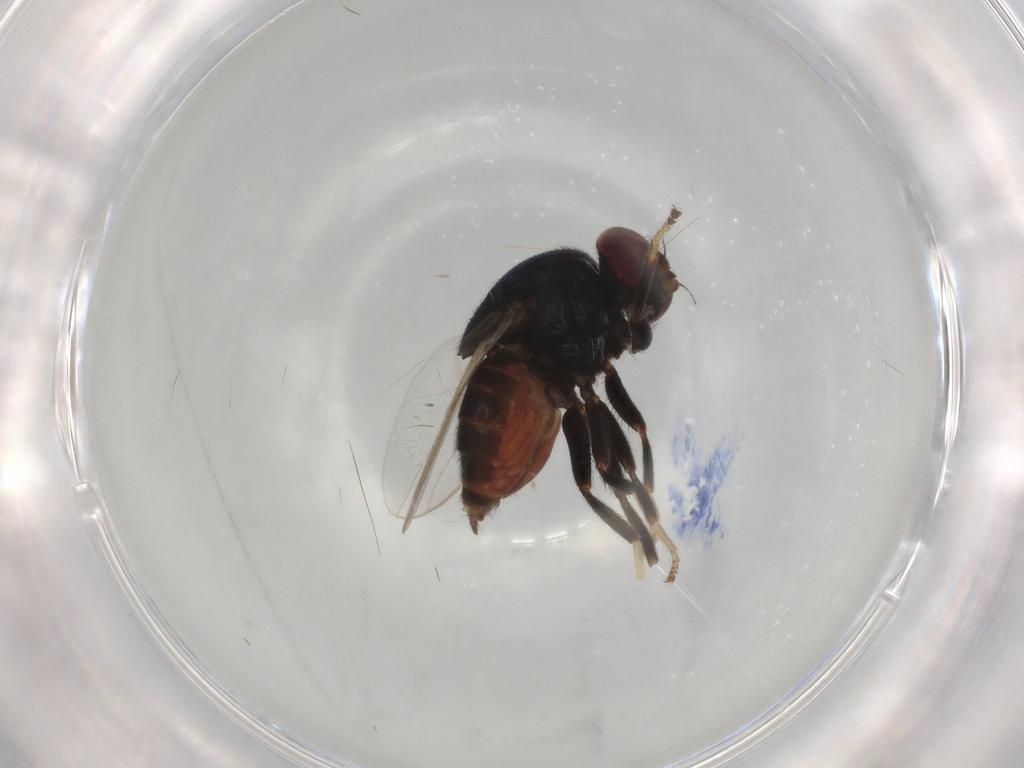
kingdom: Animalia
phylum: Arthropoda
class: Insecta
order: Diptera
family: Chloropidae
